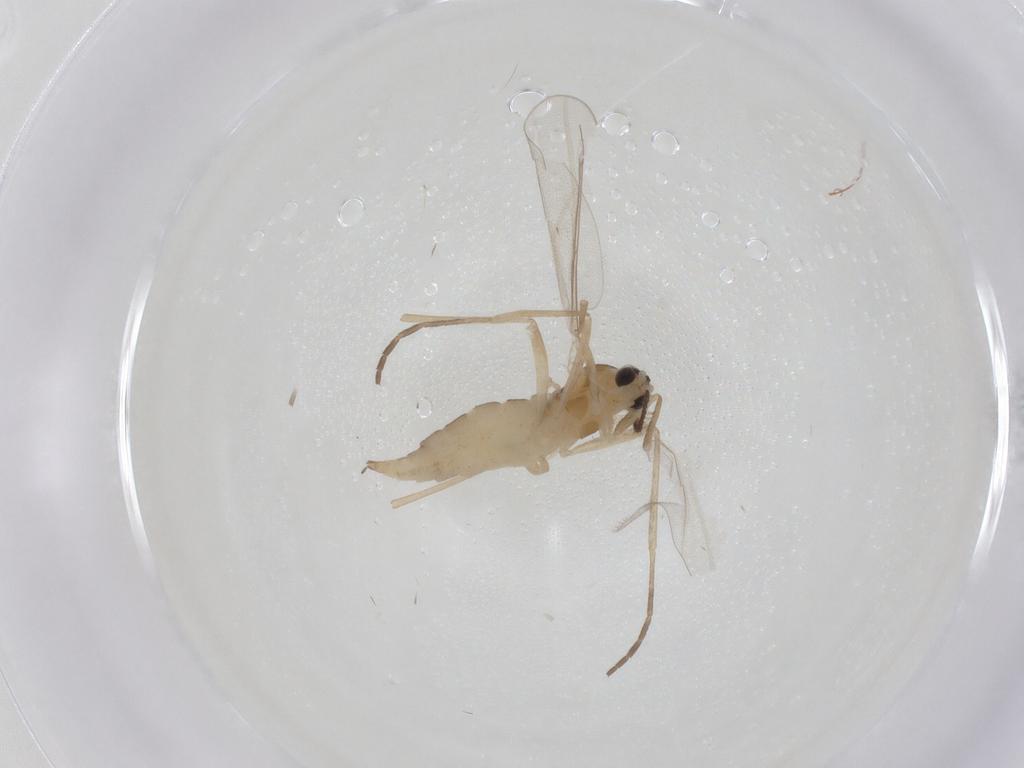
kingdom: Animalia
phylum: Arthropoda
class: Insecta
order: Diptera
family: Cecidomyiidae
